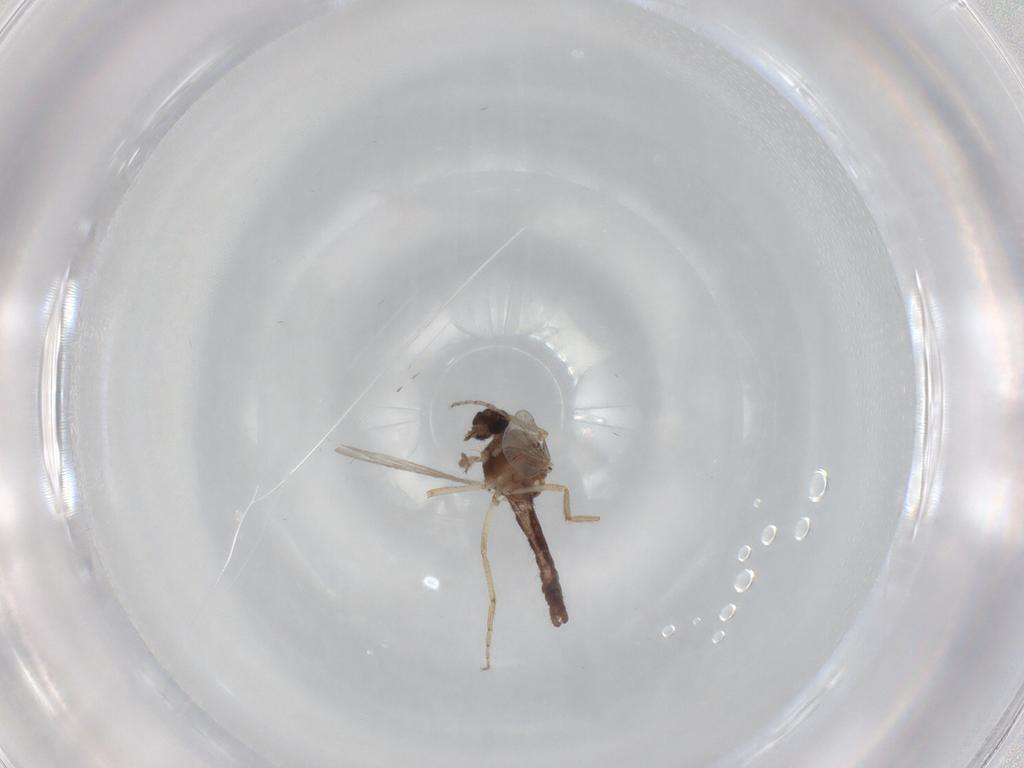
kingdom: Animalia
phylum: Arthropoda
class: Insecta
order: Diptera
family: Ceratopogonidae
